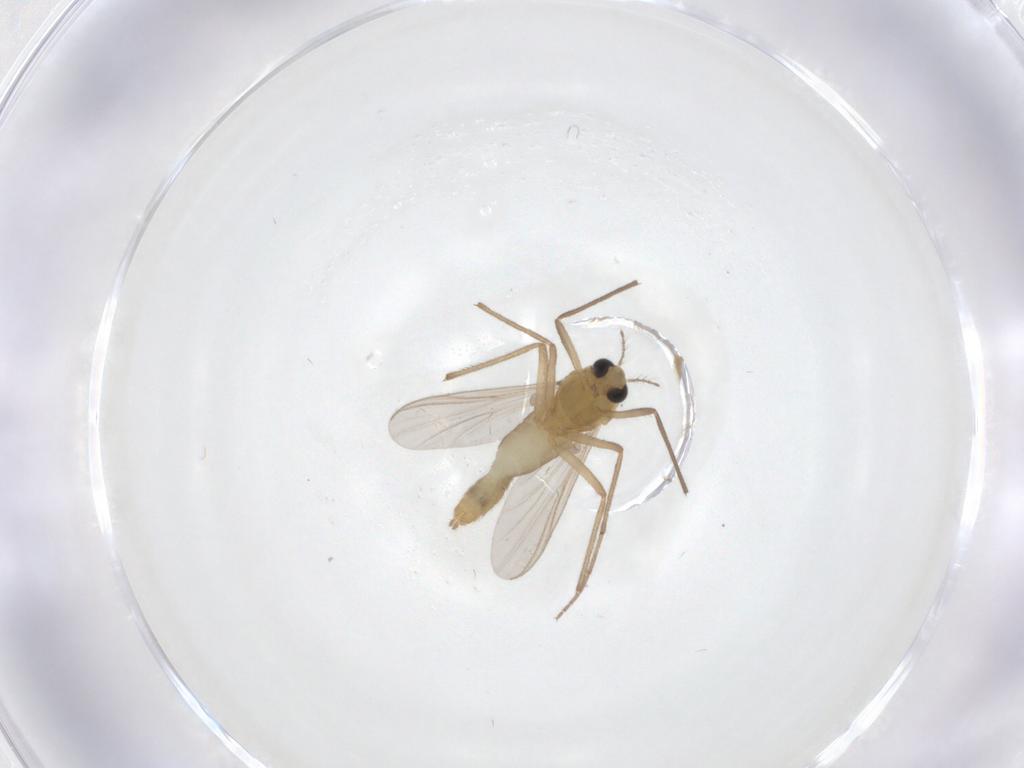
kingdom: Animalia
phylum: Arthropoda
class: Insecta
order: Diptera
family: Chironomidae
